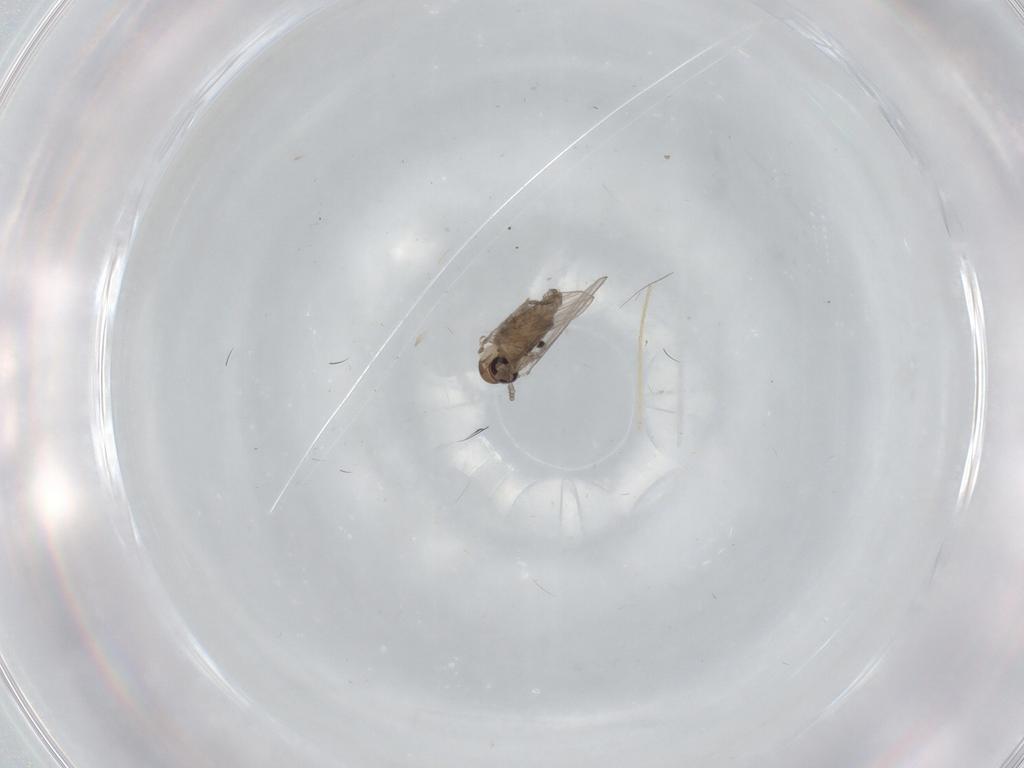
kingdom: Animalia
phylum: Arthropoda
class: Insecta
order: Diptera
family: Psychodidae
